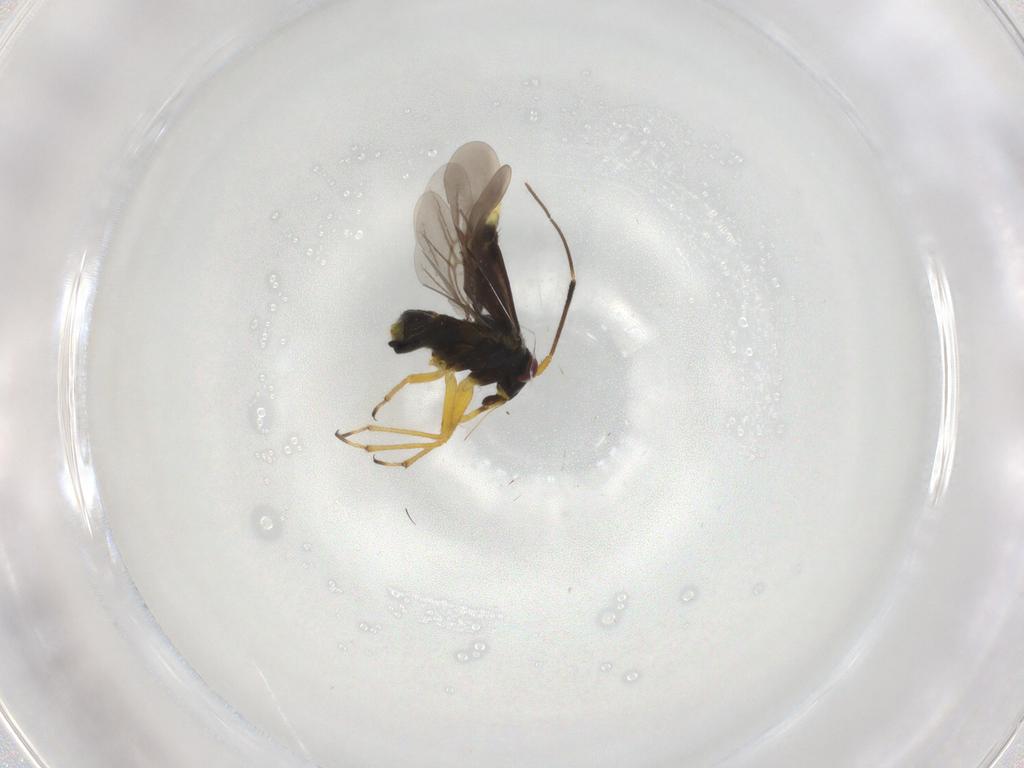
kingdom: Animalia
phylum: Arthropoda
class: Insecta
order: Hemiptera
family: Miridae
